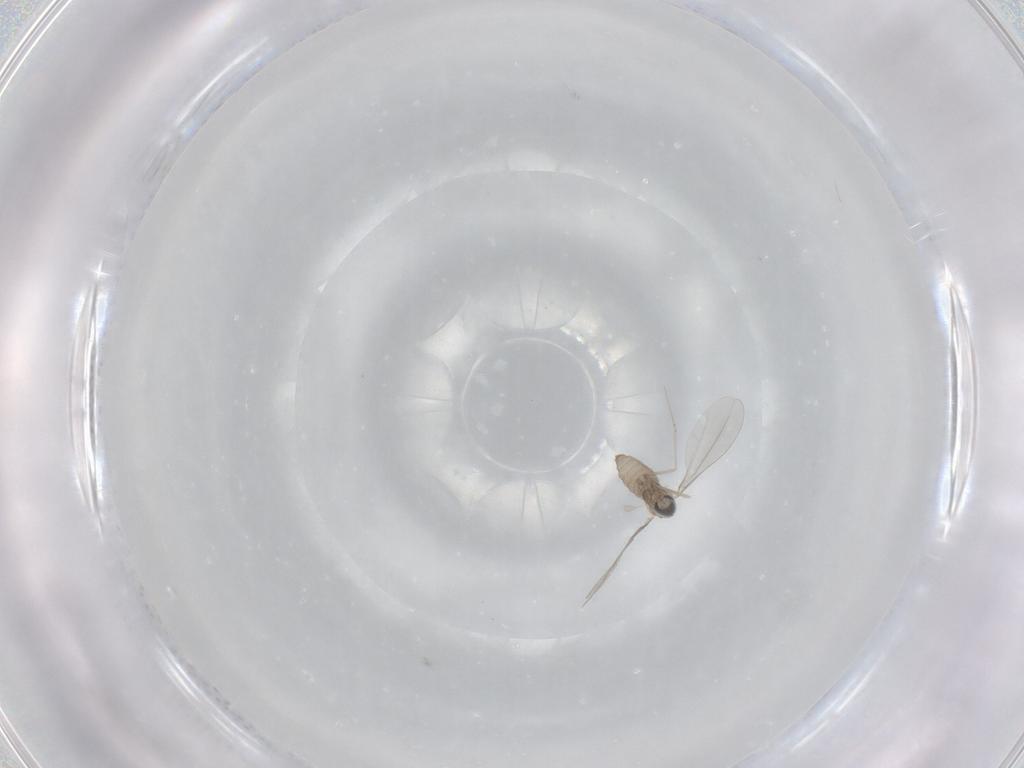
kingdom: Animalia
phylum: Arthropoda
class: Insecta
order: Diptera
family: Cecidomyiidae
